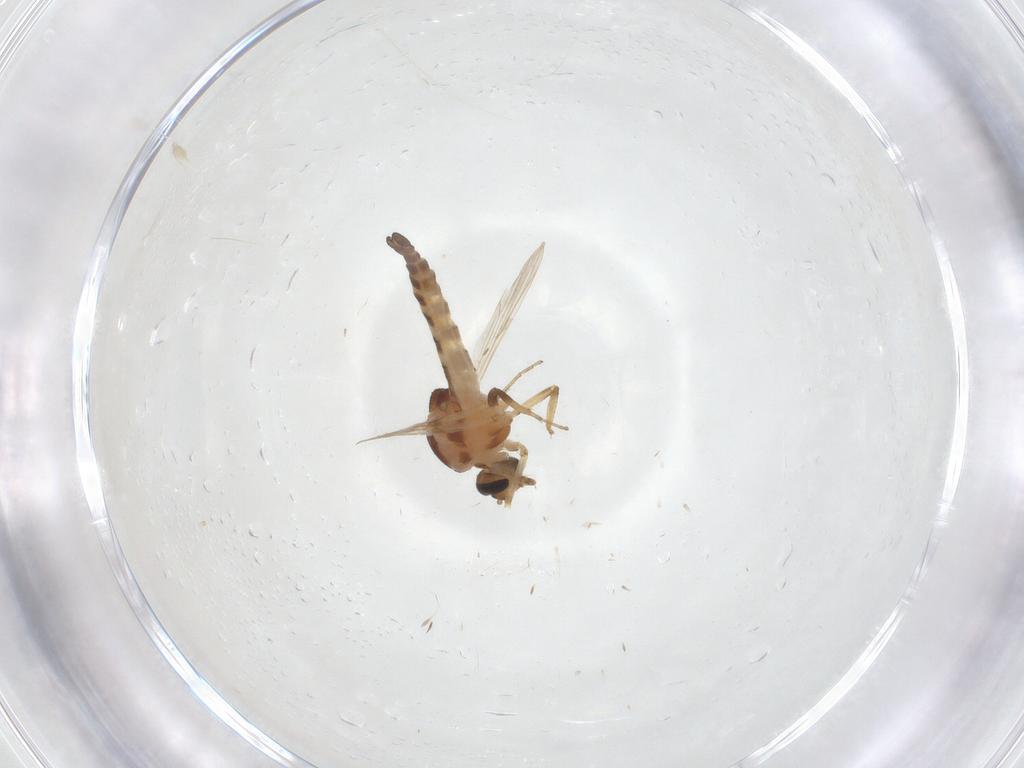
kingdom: Animalia
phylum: Arthropoda
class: Insecta
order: Diptera
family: Ceratopogonidae
